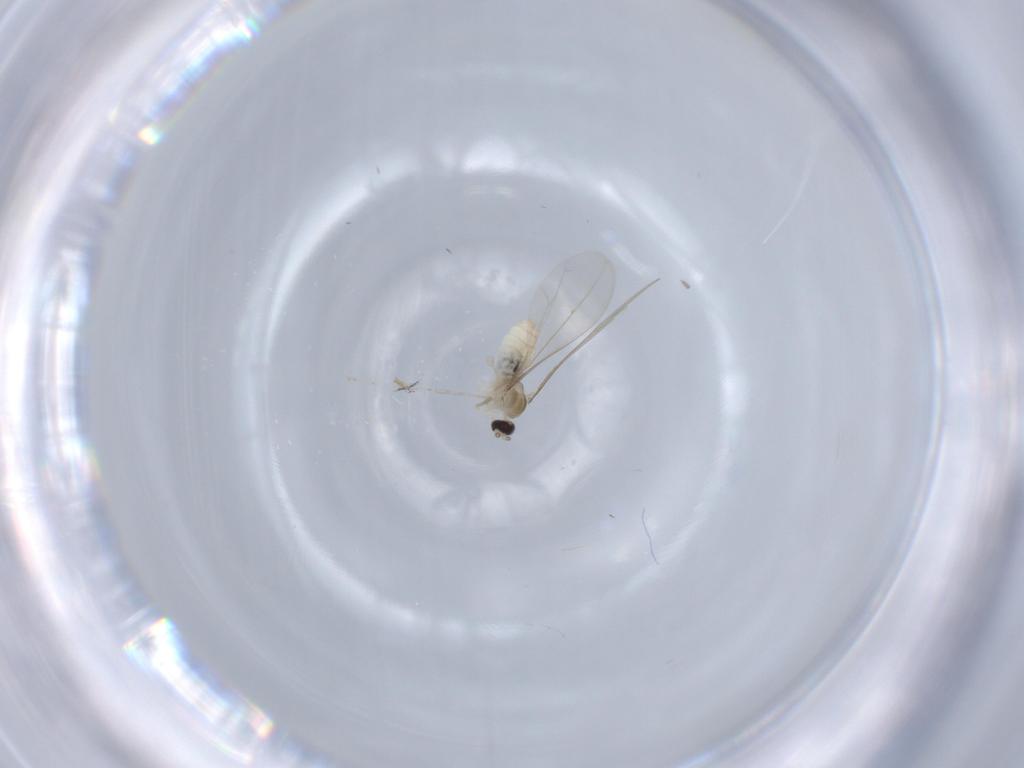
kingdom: Animalia
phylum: Arthropoda
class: Insecta
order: Diptera
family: Cecidomyiidae
